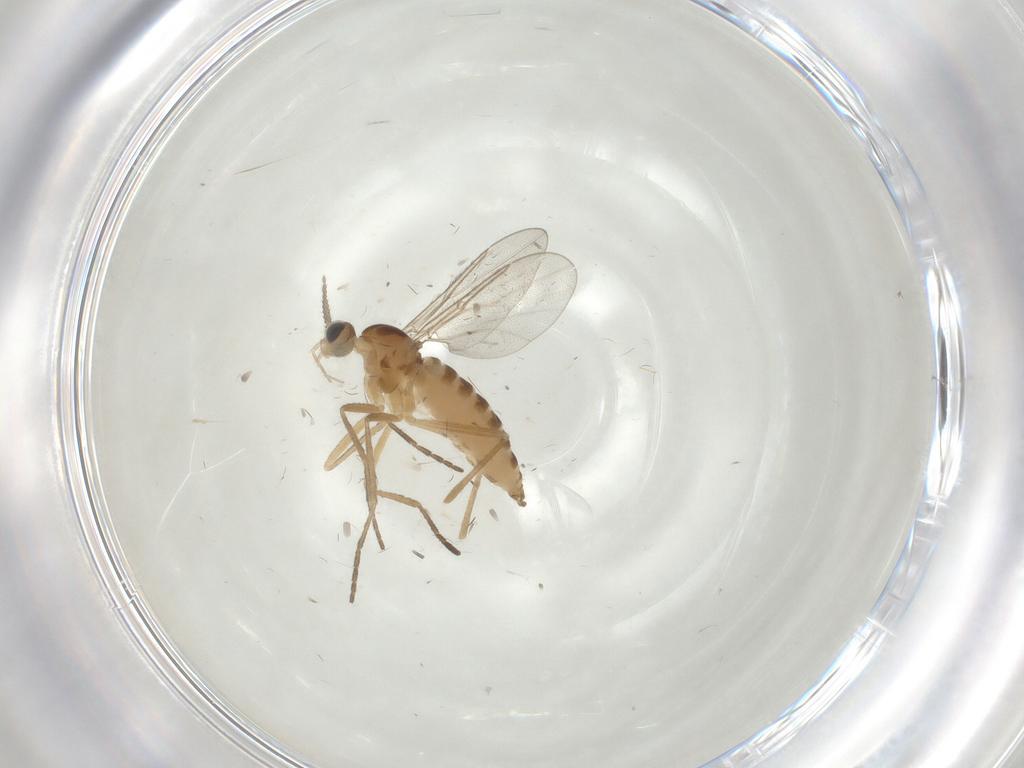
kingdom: Animalia
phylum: Arthropoda
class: Insecta
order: Diptera
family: Cecidomyiidae
